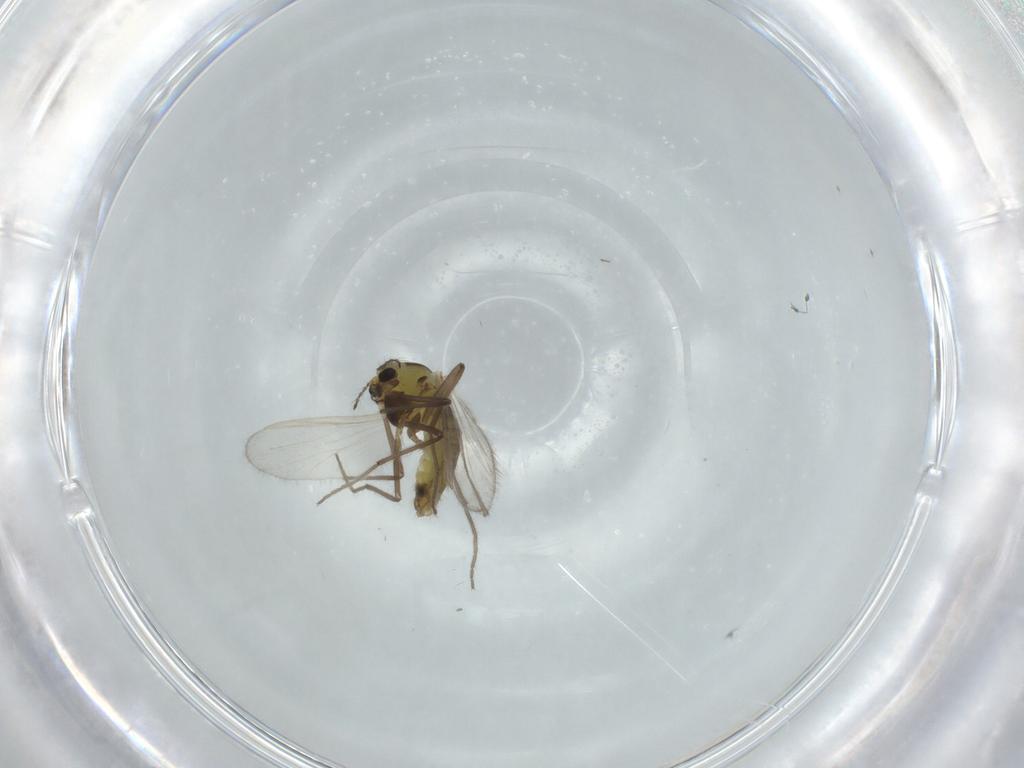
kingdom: Animalia
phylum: Arthropoda
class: Insecta
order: Diptera
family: Chironomidae
